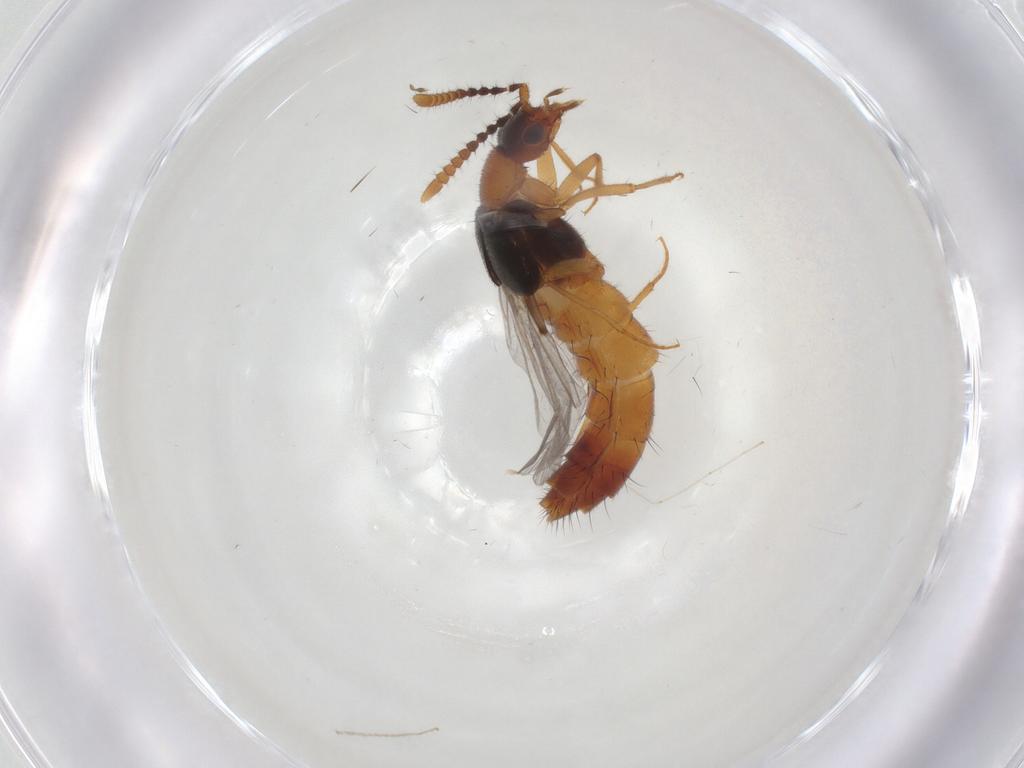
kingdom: Animalia
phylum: Arthropoda
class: Insecta
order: Coleoptera
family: Staphylinidae
